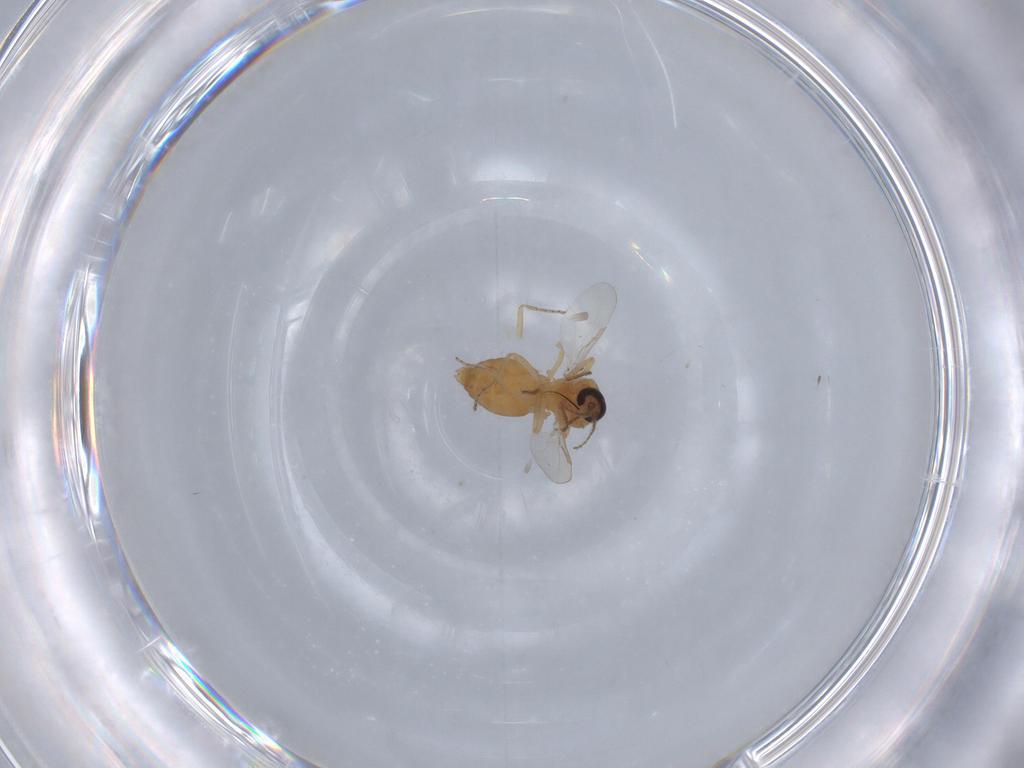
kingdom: Animalia
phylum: Arthropoda
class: Insecta
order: Diptera
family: Ceratopogonidae
